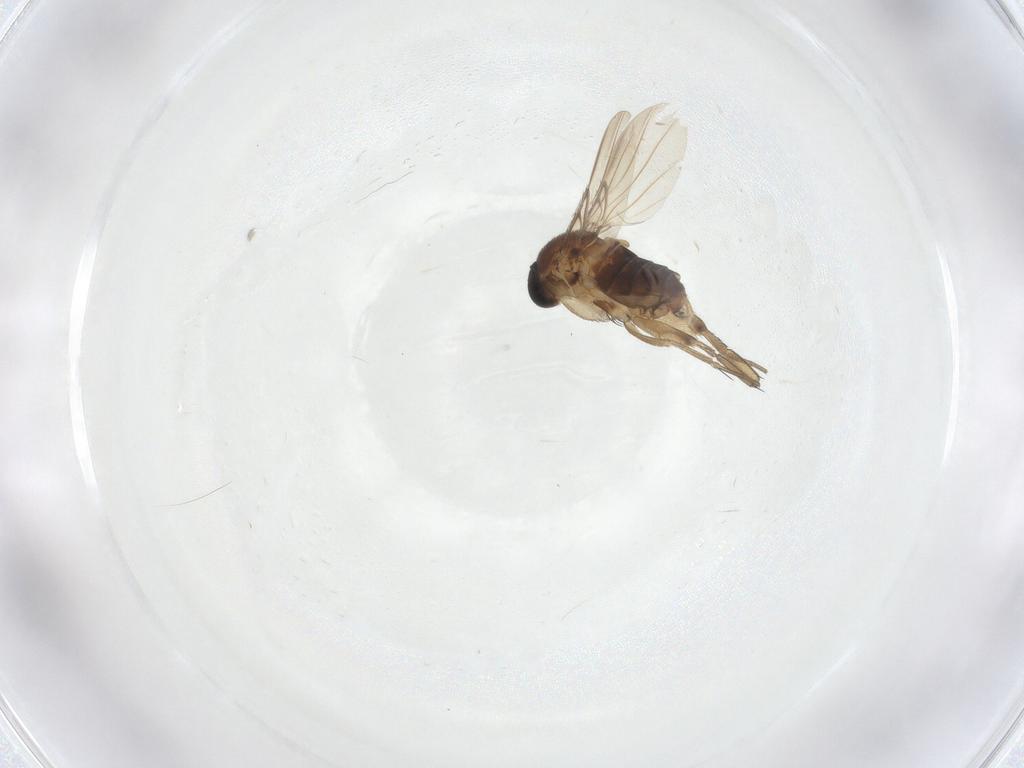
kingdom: Animalia
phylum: Arthropoda
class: Insecta
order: Diptera
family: Phoridae
